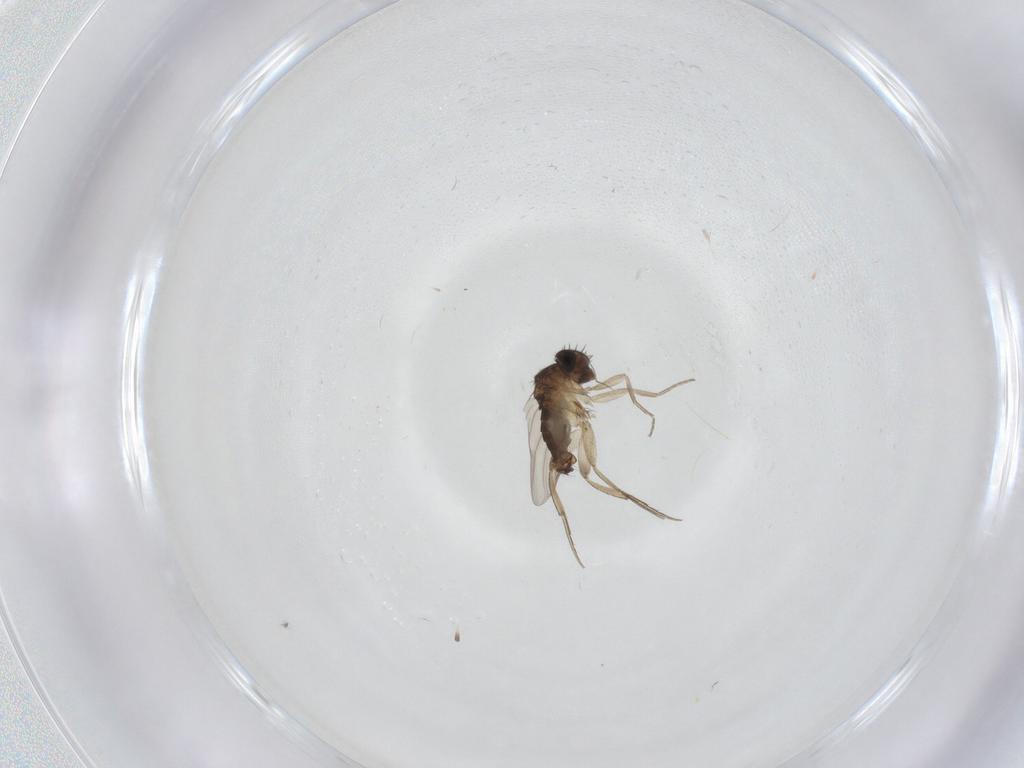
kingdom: Animalia
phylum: Arthropoda
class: Insecta
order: Diptera
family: Phoridae
